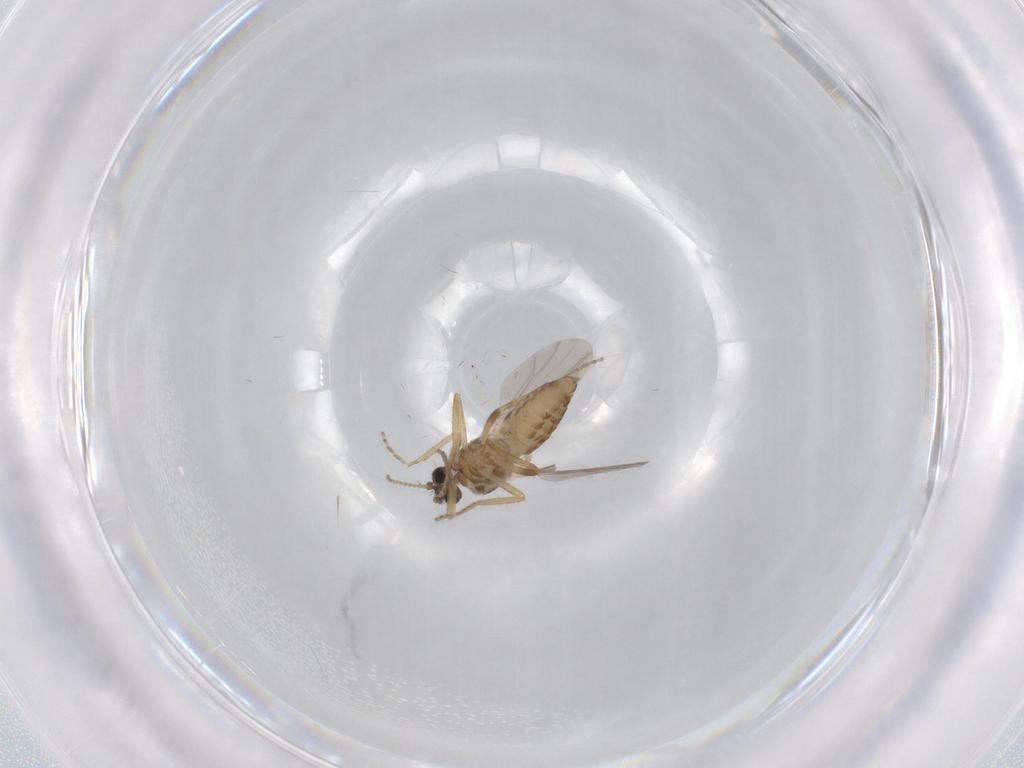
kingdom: Animalia
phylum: Arthropoda
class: Insecta
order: Diptera
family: Ceratopogonidae
